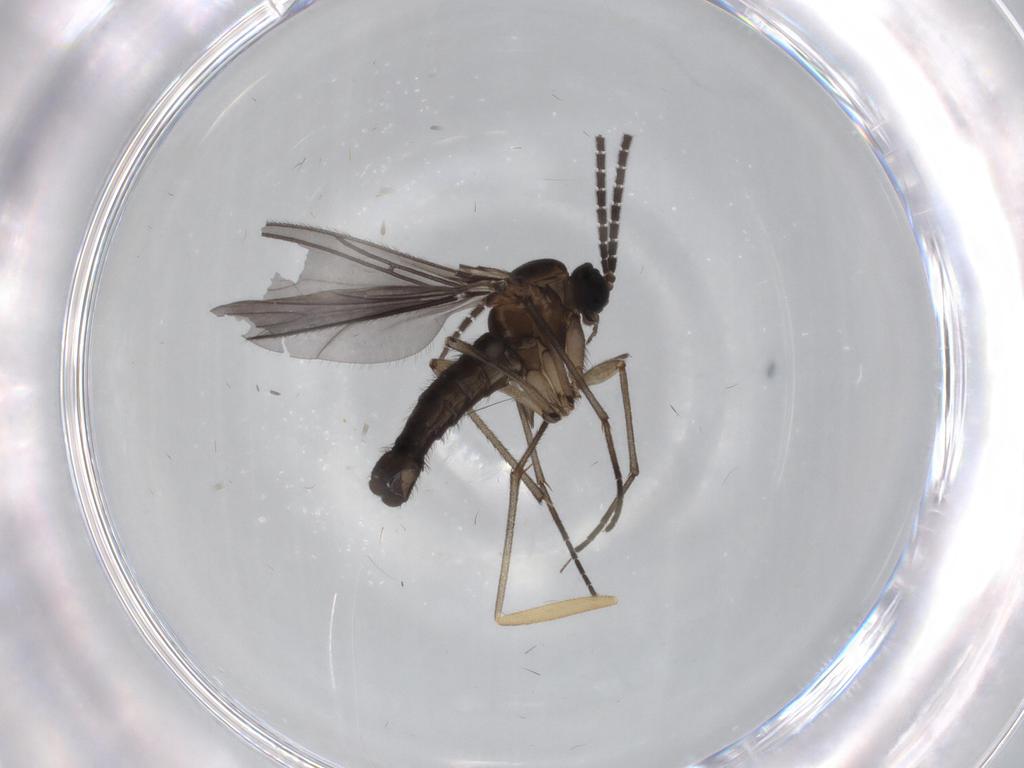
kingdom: Animalia
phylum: Arthropoda
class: Insecta
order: Diptera
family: Sciaridae
